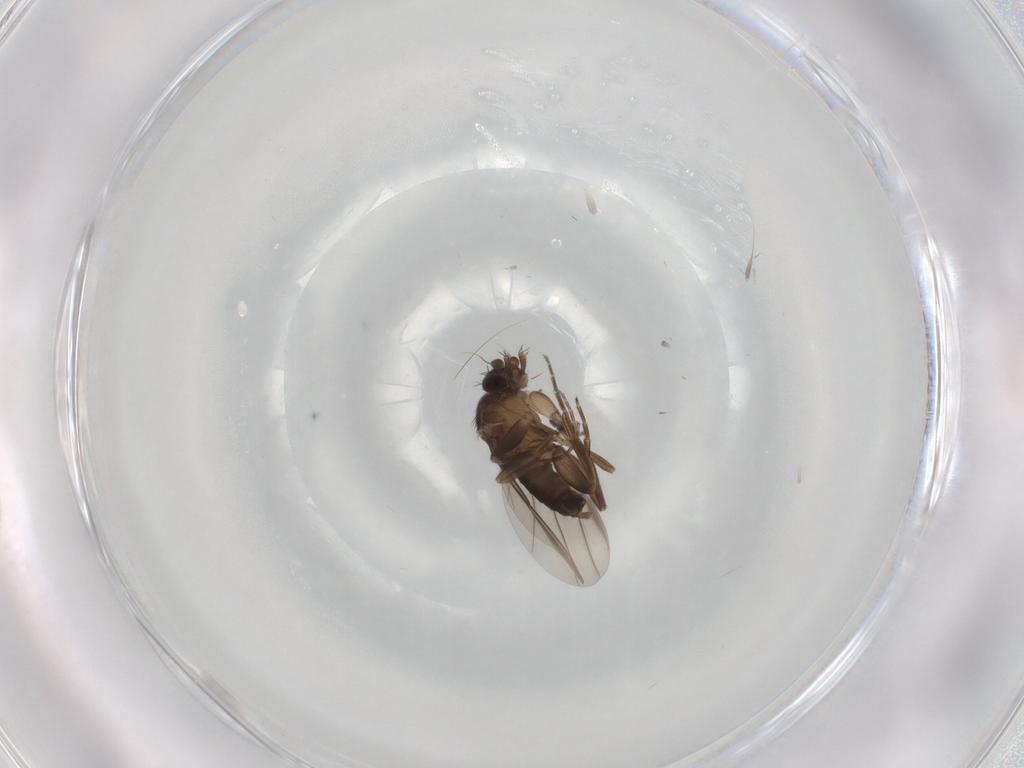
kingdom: Animalia
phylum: Arthropoda
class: Insecta
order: Diptera
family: Phoridae
